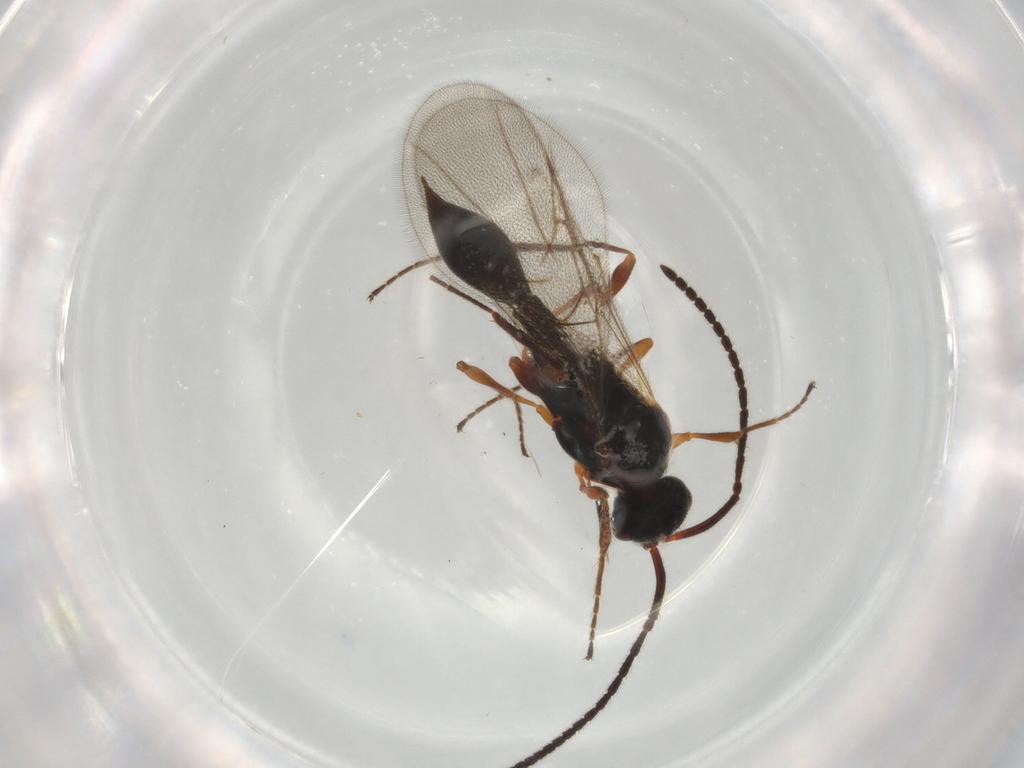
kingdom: Animalia
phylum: Arthropoda
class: Insecta
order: Hymenoptera
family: Diapriidae
